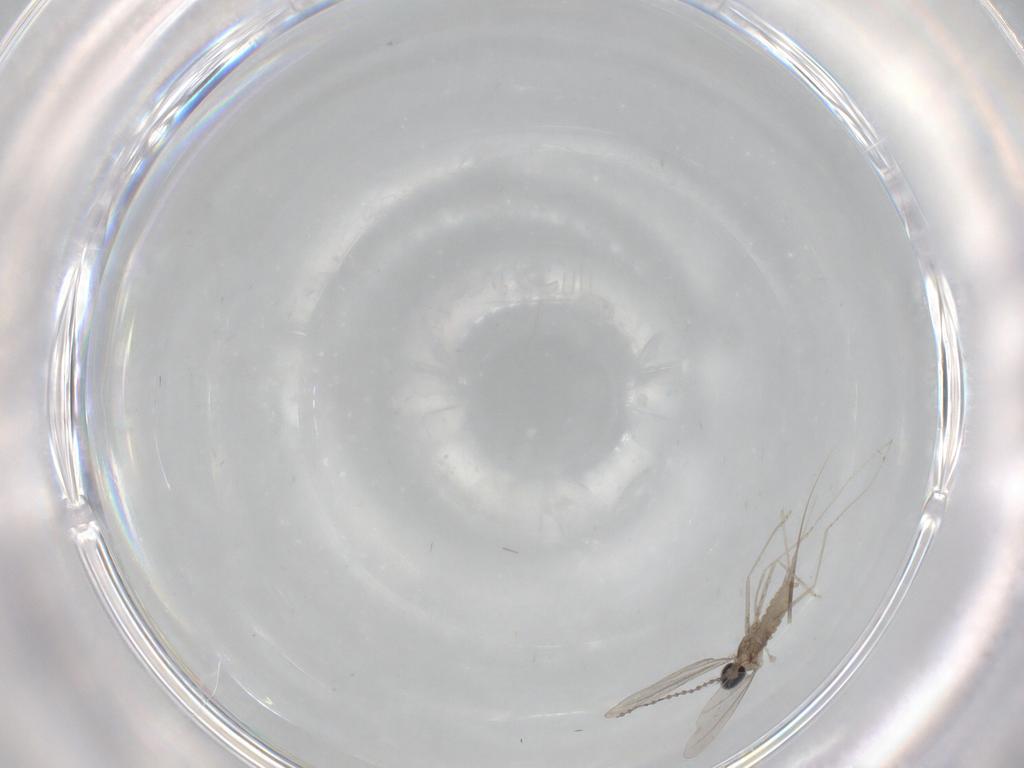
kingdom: Animalia
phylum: Arthropoda
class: Insecta
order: Diptera
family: Cecidomyiidae
